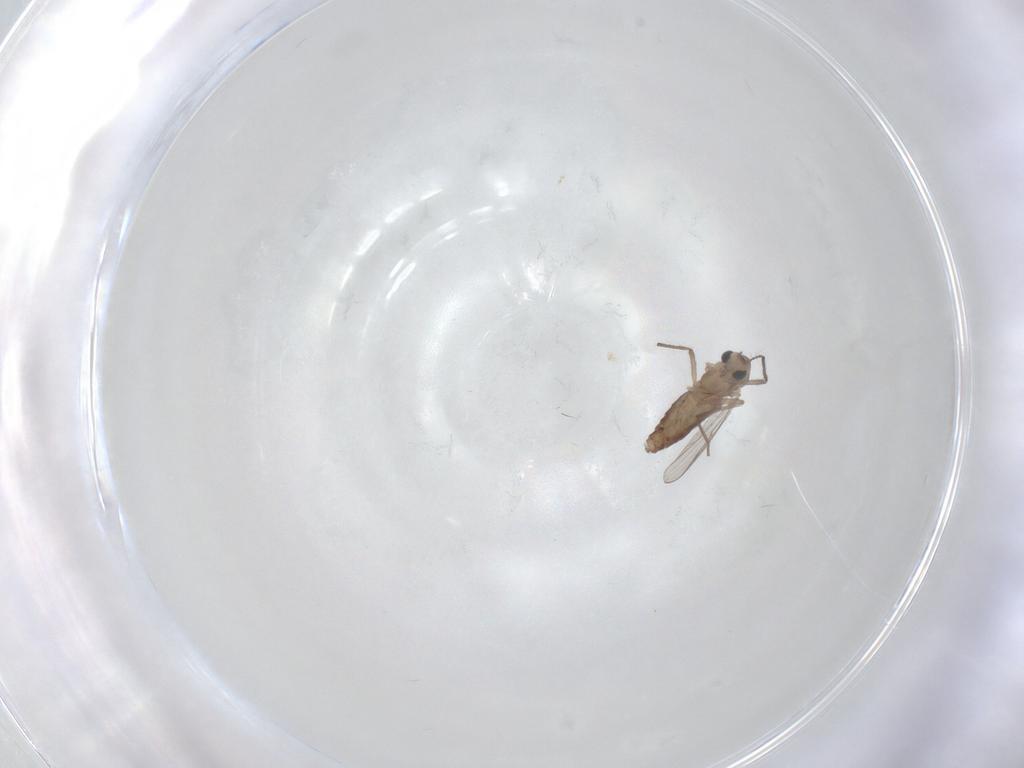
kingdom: Animalia
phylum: Arthropoda
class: Insecta
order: Diptera
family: Chironomidae
